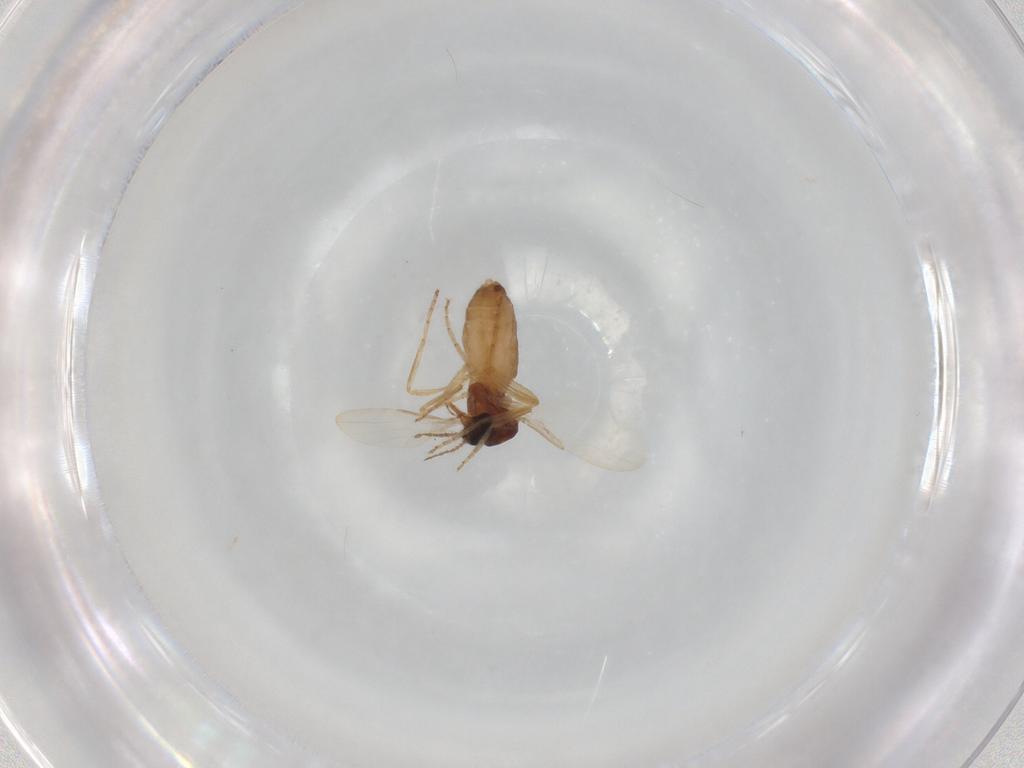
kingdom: Animalia
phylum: Arthropoda
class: Insecta
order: Diptera
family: Ceratopogonidae
